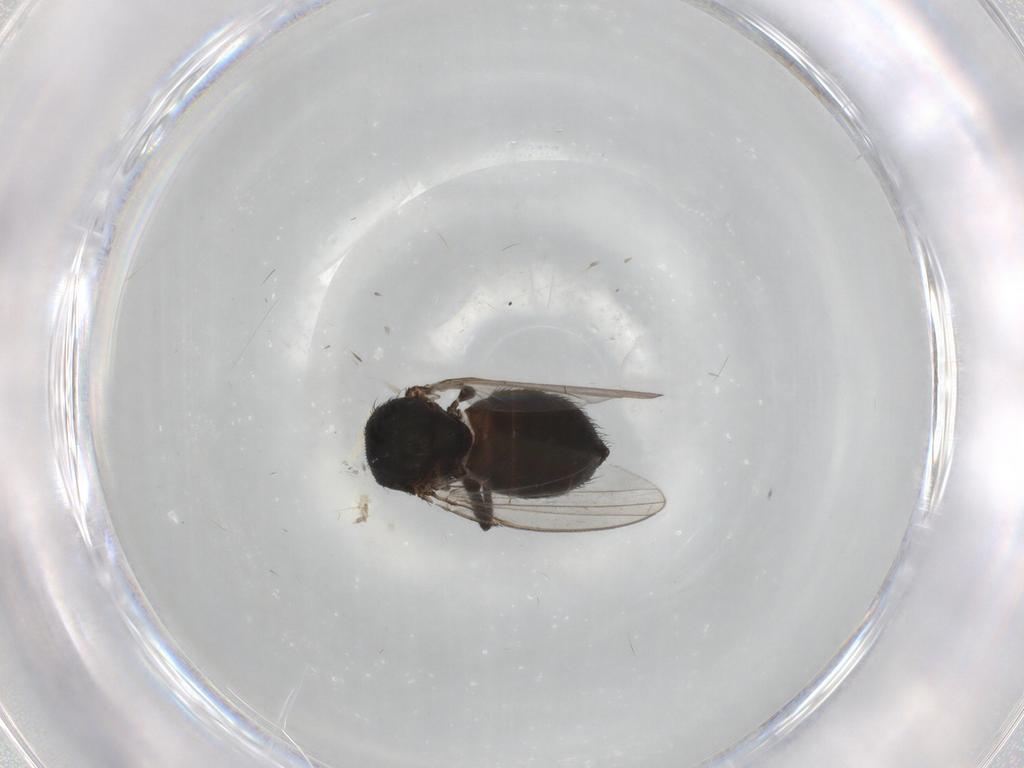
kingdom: Animalia
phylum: Arthropoda
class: Insecta
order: Diptera
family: Milichiidae
